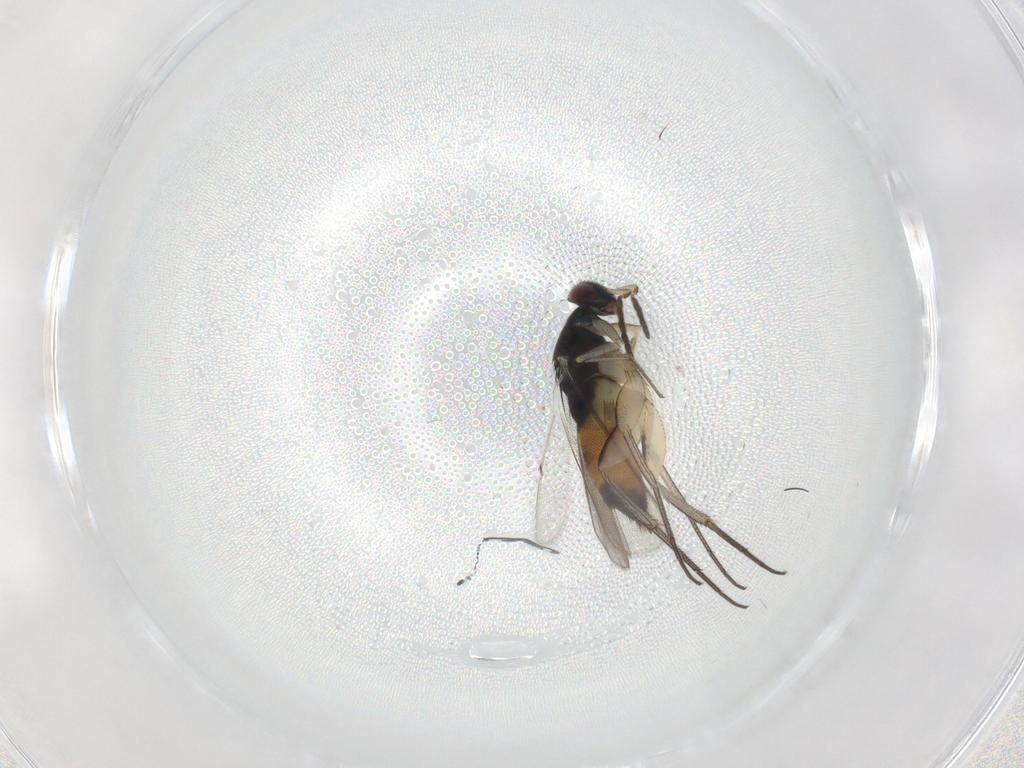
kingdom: Animalia
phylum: Arthropoda
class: Insecta
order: Hymenoptera
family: Eulophidae
